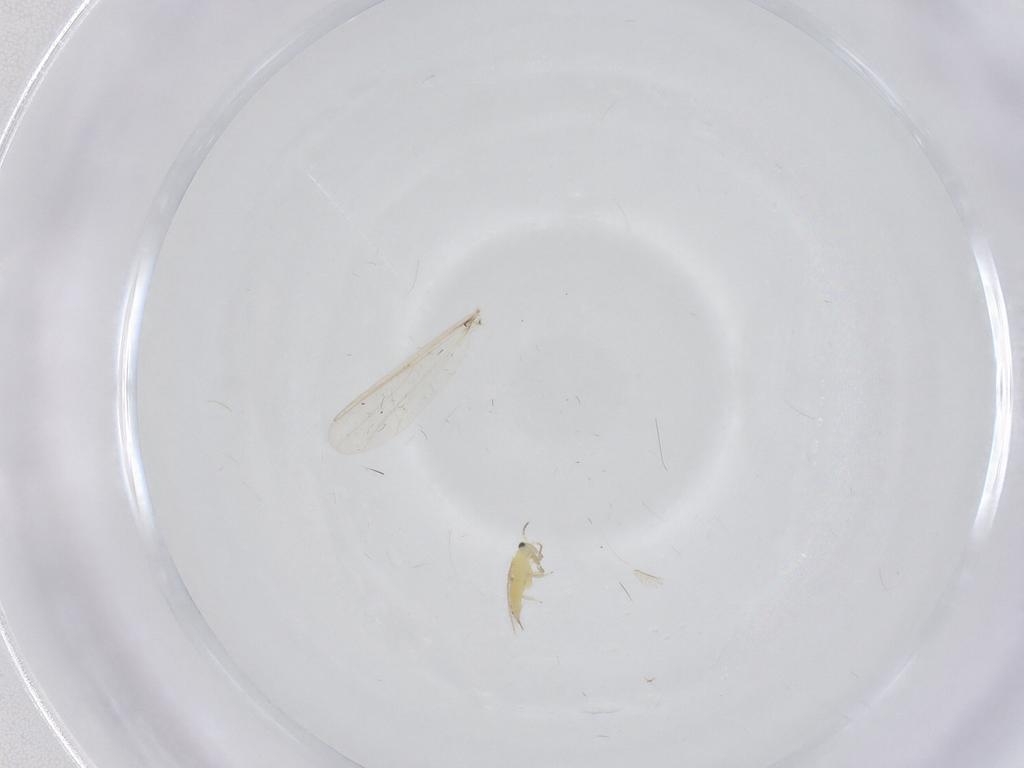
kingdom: Animalia
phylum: Arthropoda
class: Insecta
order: Diptera
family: Chironomidae
